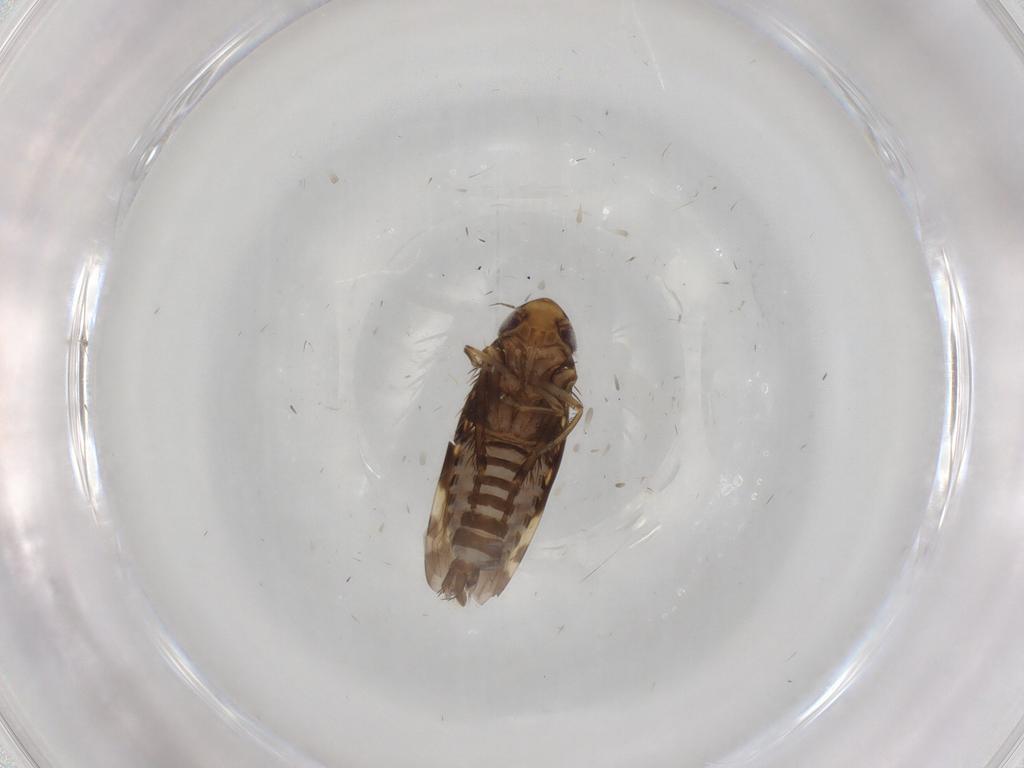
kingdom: Animalia
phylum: Arthropoda
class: Insecta
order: Hemiptera
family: Cicadellidae
